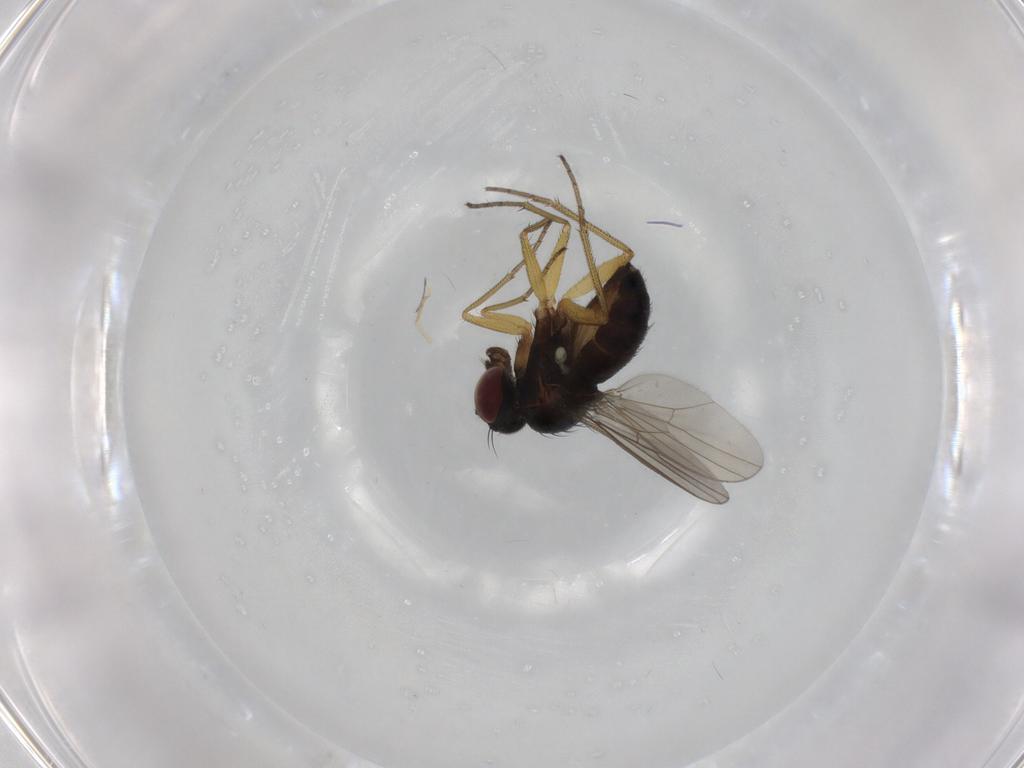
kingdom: Animalia
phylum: Arthropoda
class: Insecta
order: Diptera
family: Dolichopodidae
